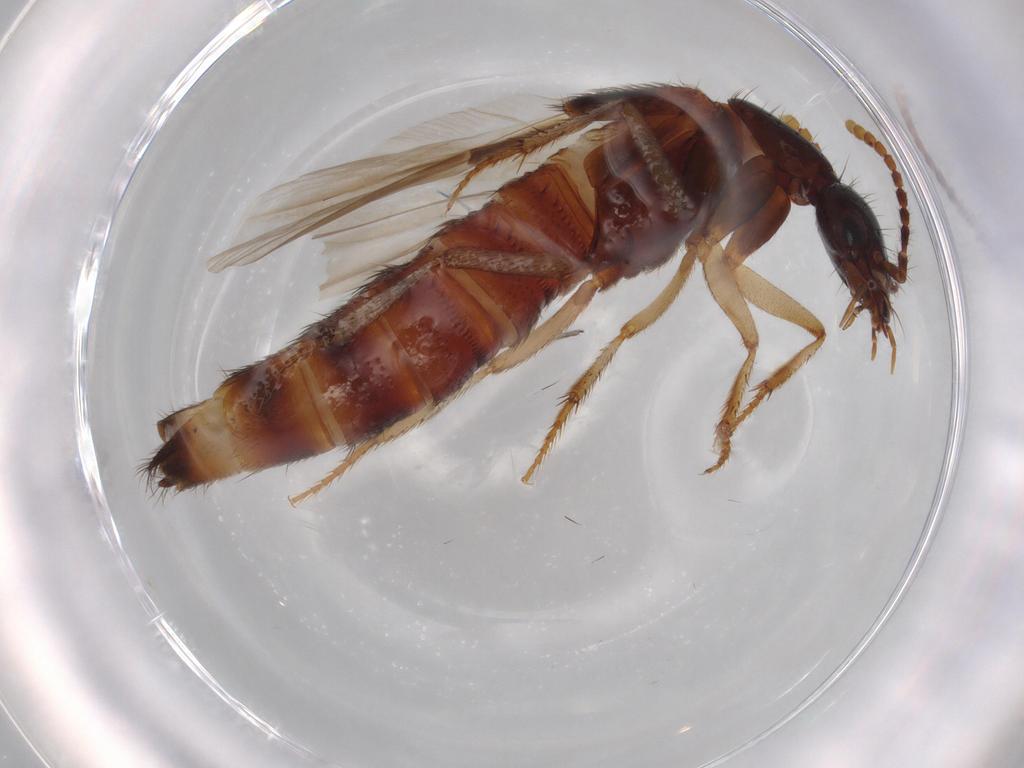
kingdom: Animalia
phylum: Arthropoda
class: Insecta
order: Coleoptera
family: Staphylinidae
